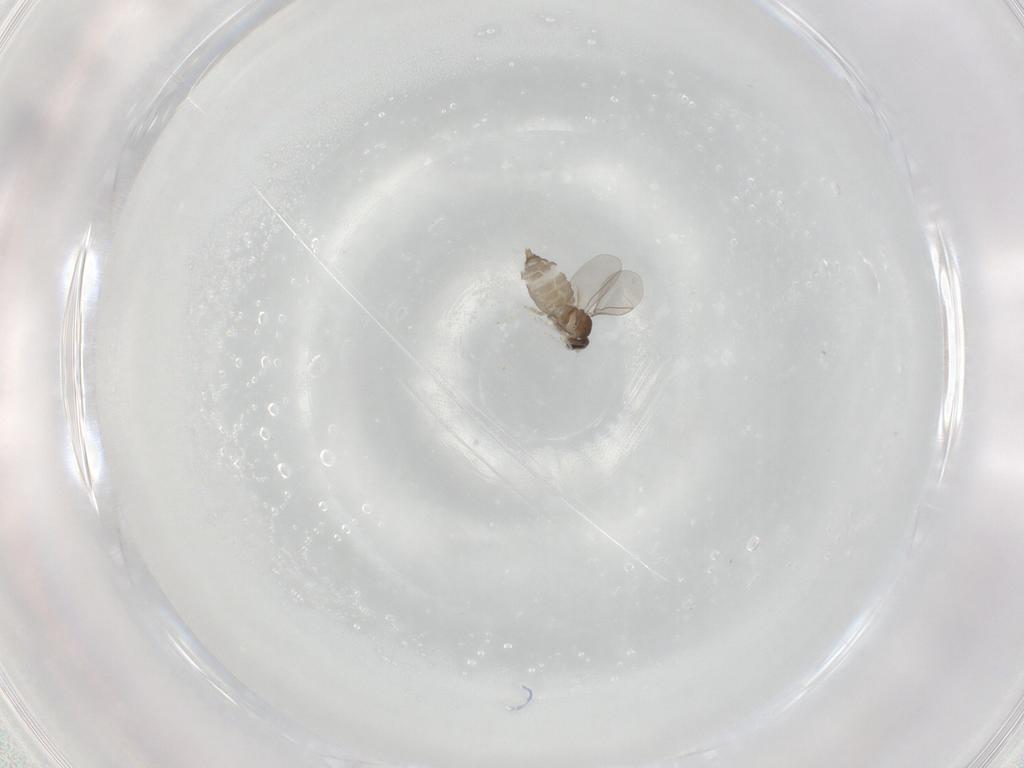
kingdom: Animalia
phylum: Arthropoda
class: Insecta
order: Diptera
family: Cecidomyiidae
